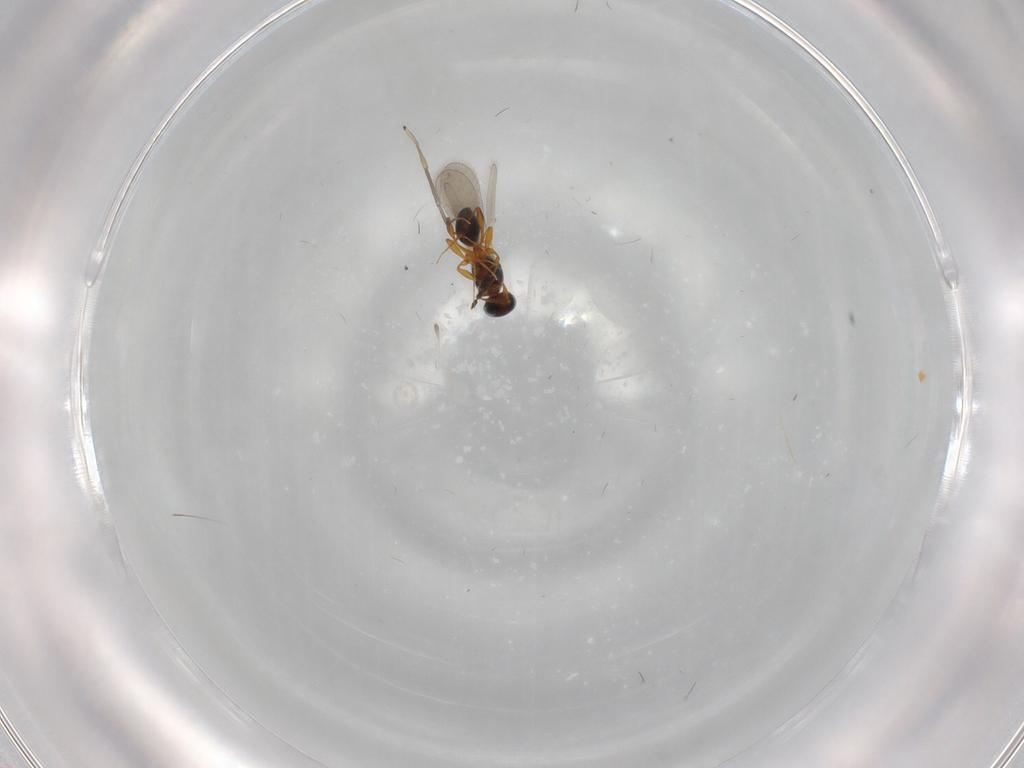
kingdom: Animalia
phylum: Arthropoda
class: Insecta
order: Hymenoptera
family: Platygastridae
